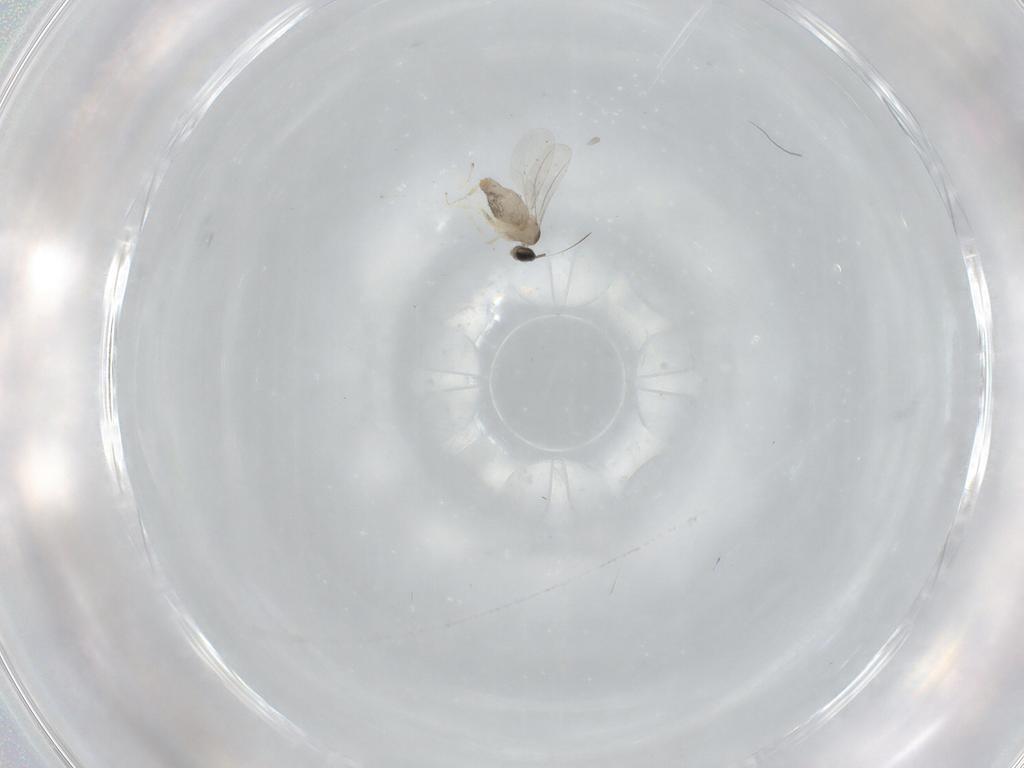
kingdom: Animalia
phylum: Arthropoda
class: Insecta
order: Diptera
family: Cecidomyiidae
